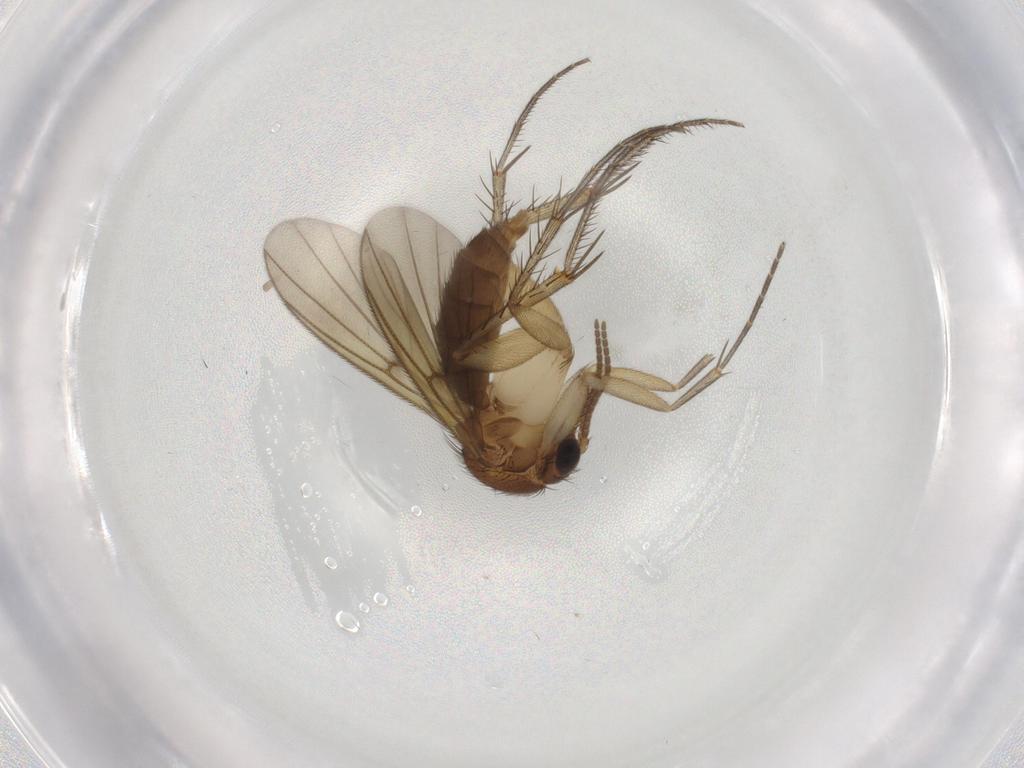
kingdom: Animalia
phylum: Arthropoda
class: Insecta
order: Diptera
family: Cecidomyiidae
